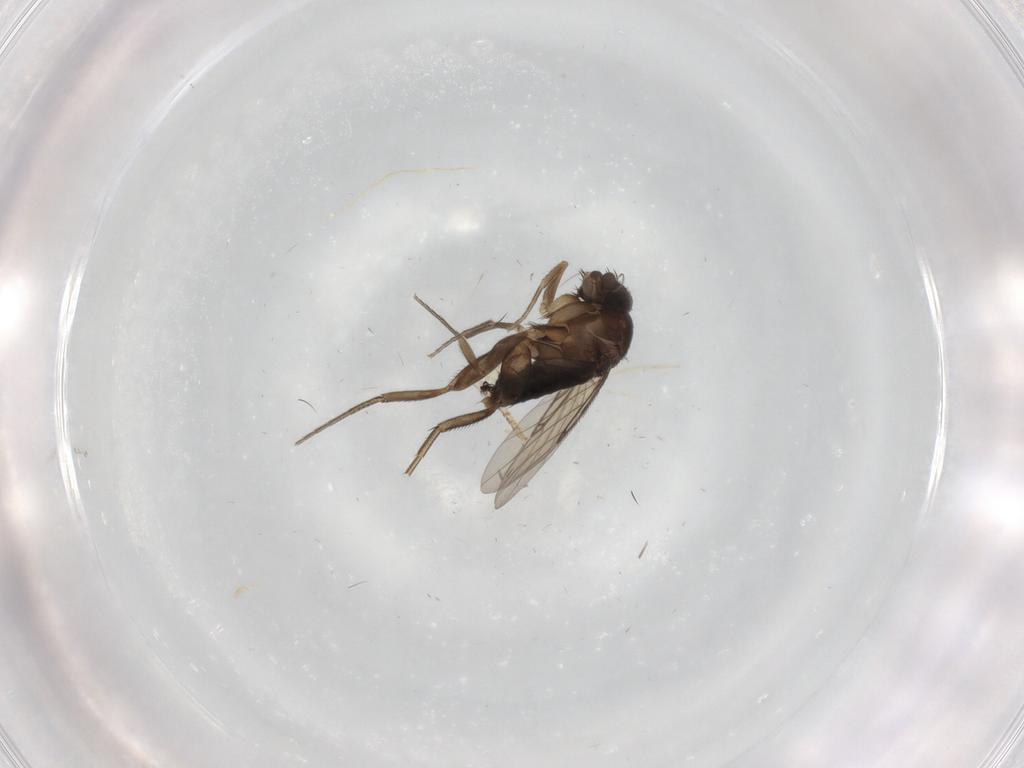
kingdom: Animalia
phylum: Arthropoda
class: Insecta
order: Diptera
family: Phoridae
